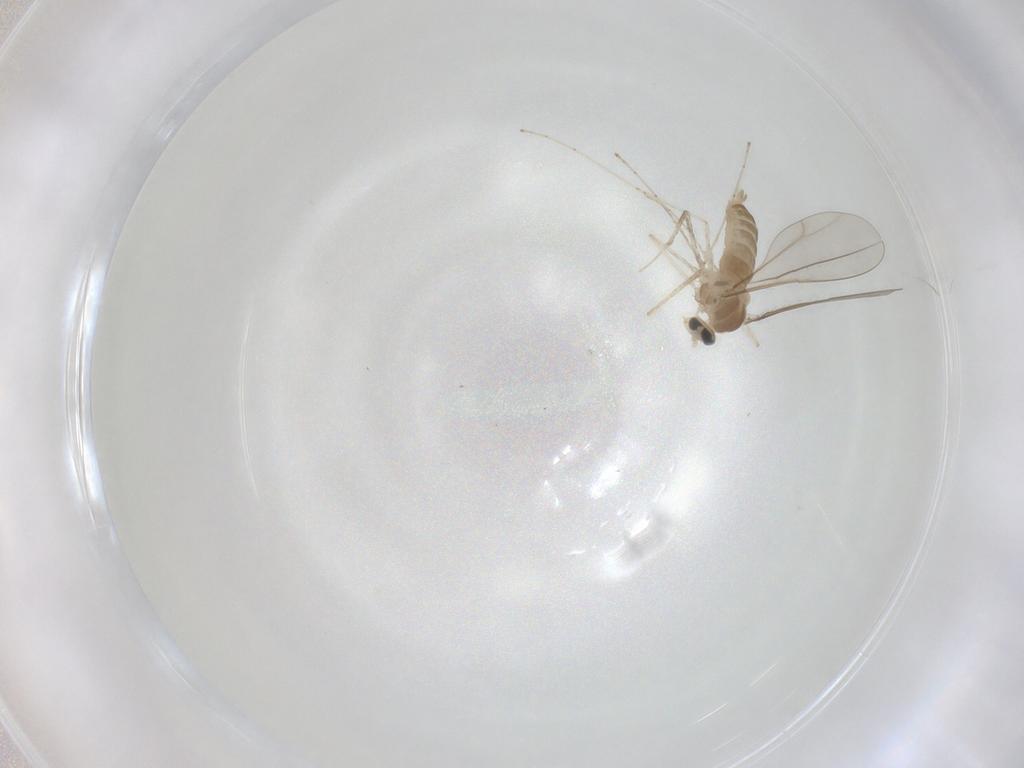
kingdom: Animalia
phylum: Arthropoda
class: Insecta
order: Diptera
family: Cecidomyiidae
